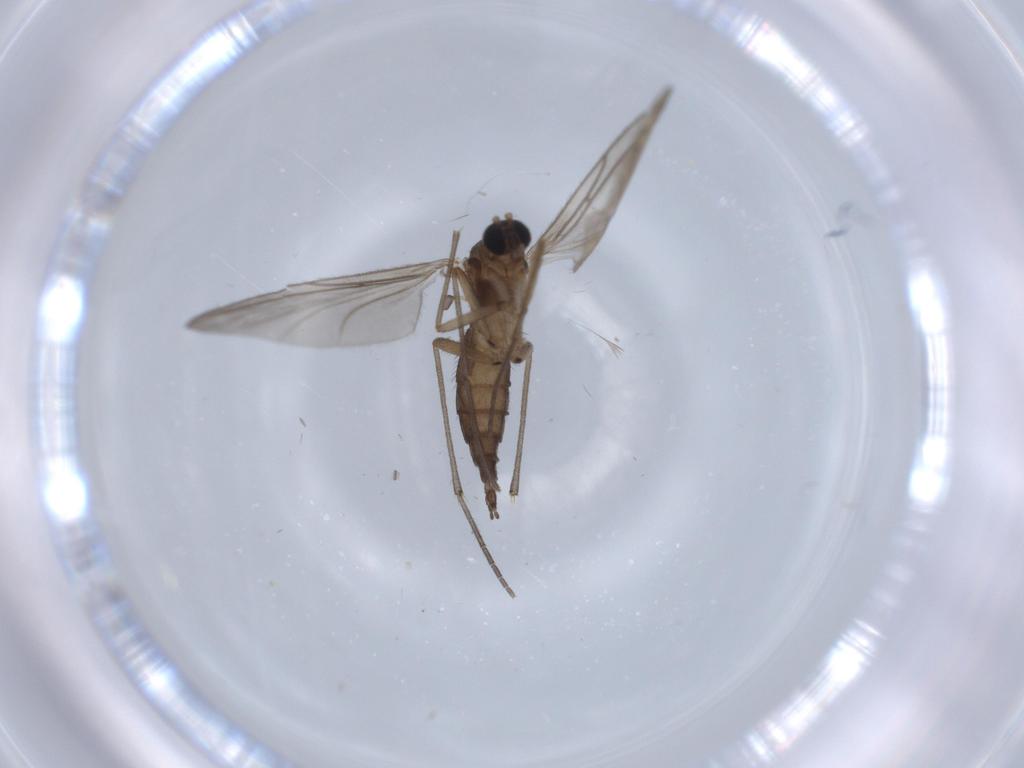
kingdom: Animalia
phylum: Arthropoda
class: Insecta
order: Diptera
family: Sciaridae
